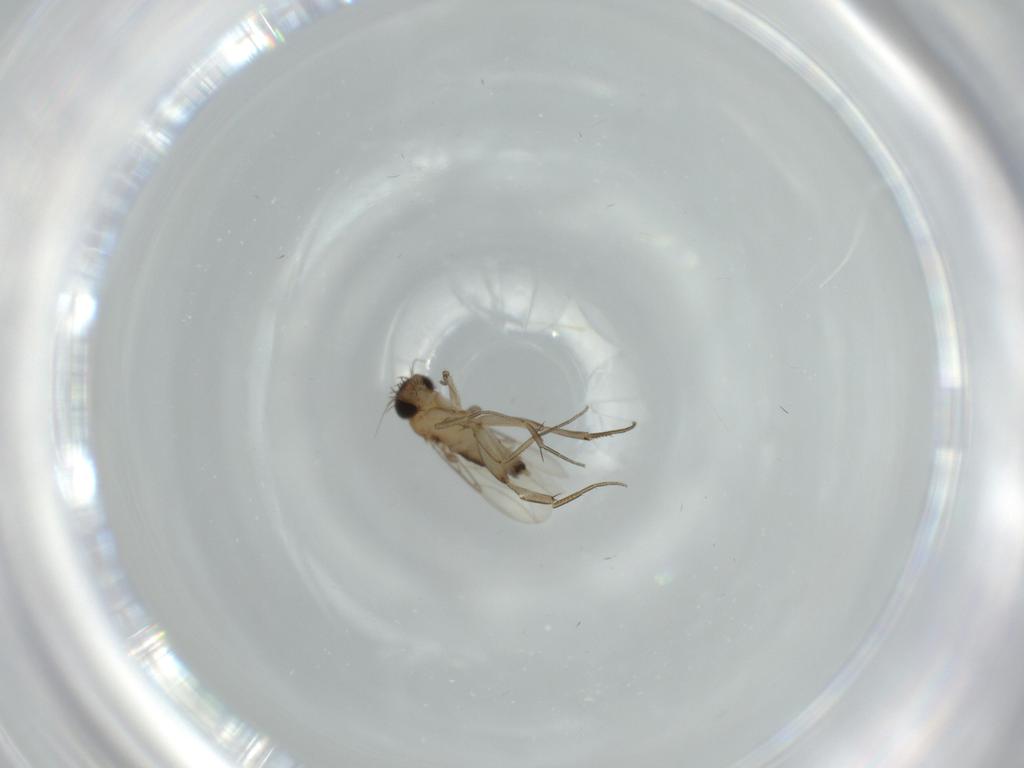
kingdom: Animalia
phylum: Arthropoda
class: Insecta
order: Diptera
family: Phoridae
